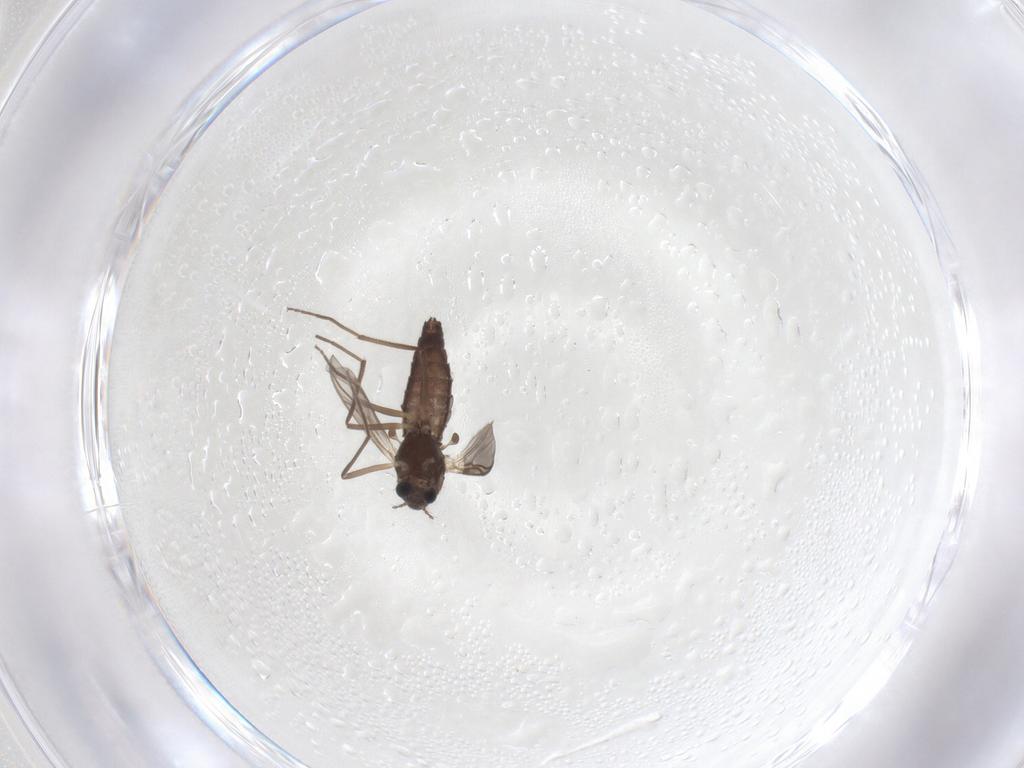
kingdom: Animalia
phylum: Arthropoda
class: Insecta
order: Diptera
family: Chironomidae
